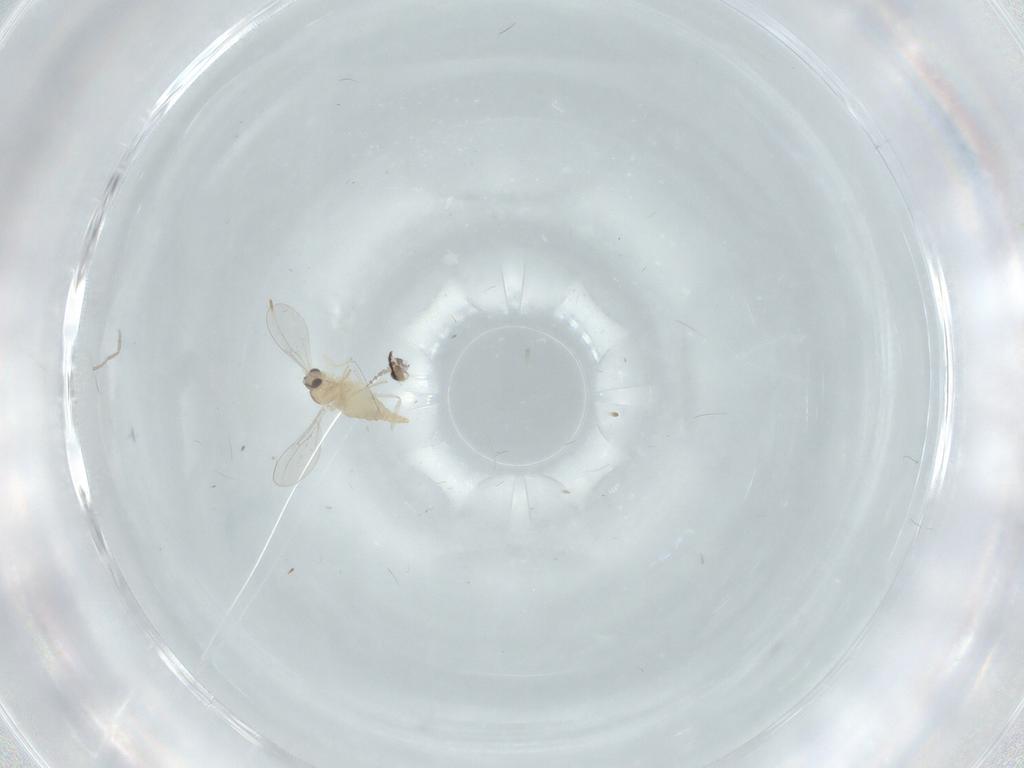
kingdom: Animalia
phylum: Arthropoda
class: Insecta
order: Diptera
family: Cecidomyiidae
